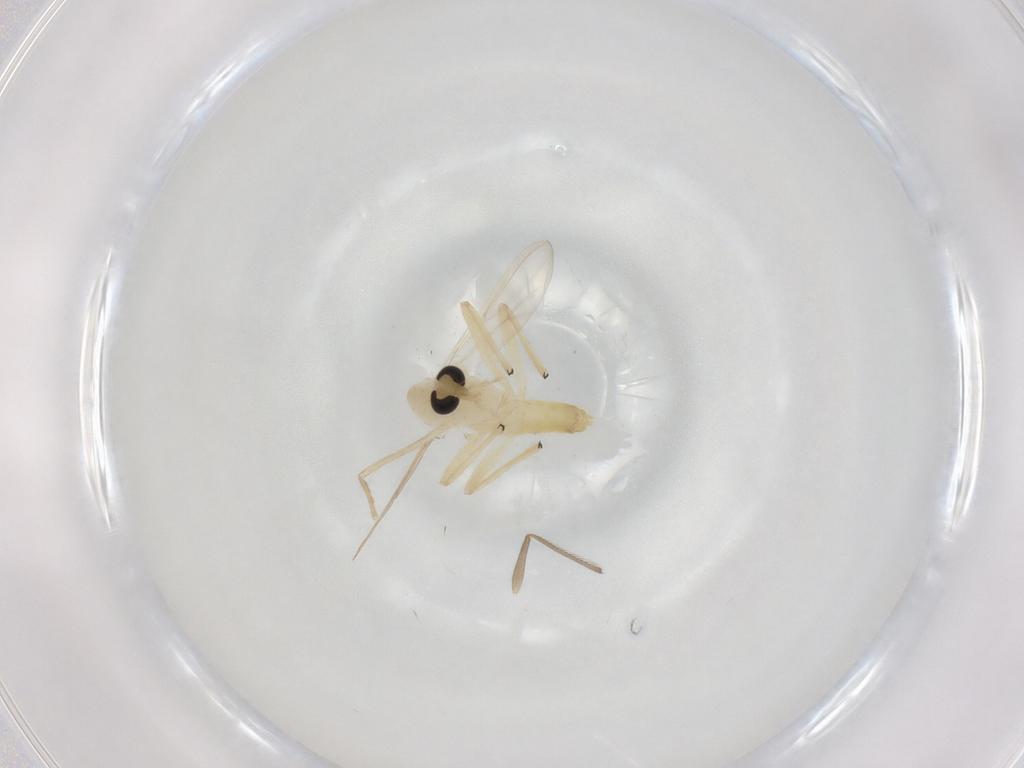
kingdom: Animalia
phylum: Arthropoda
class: Insecta
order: Diptera
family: Chironomidae
